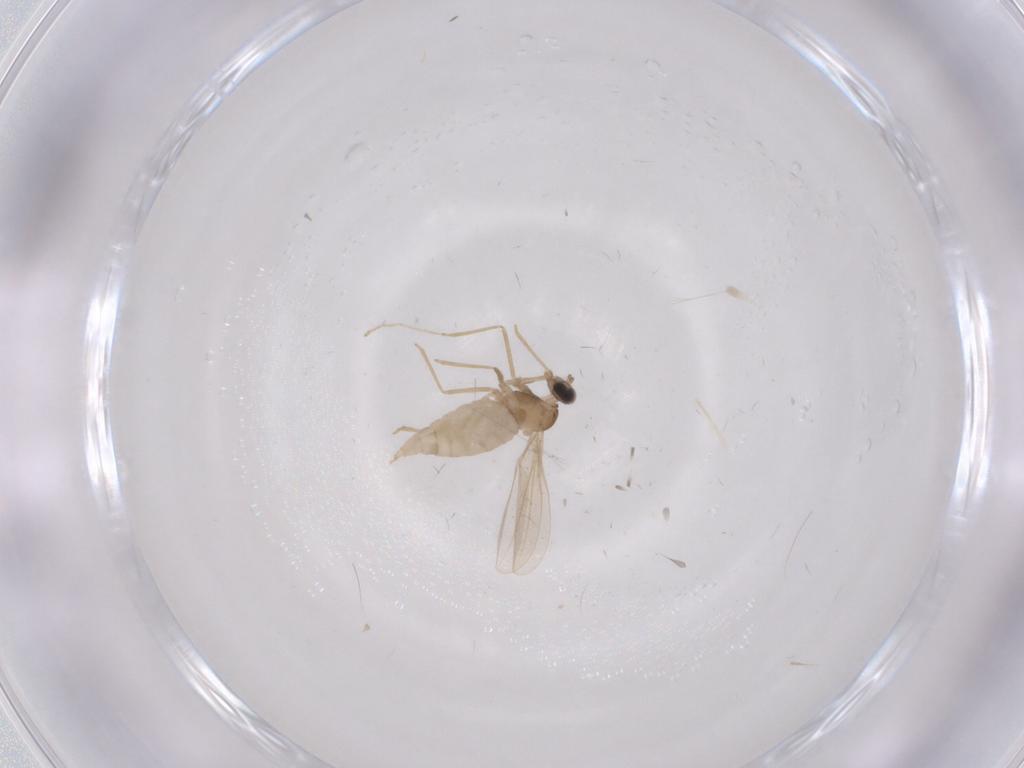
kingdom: Animalia
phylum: Arthropoda
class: Insecta
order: Diptera
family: Cecidomyiidae
